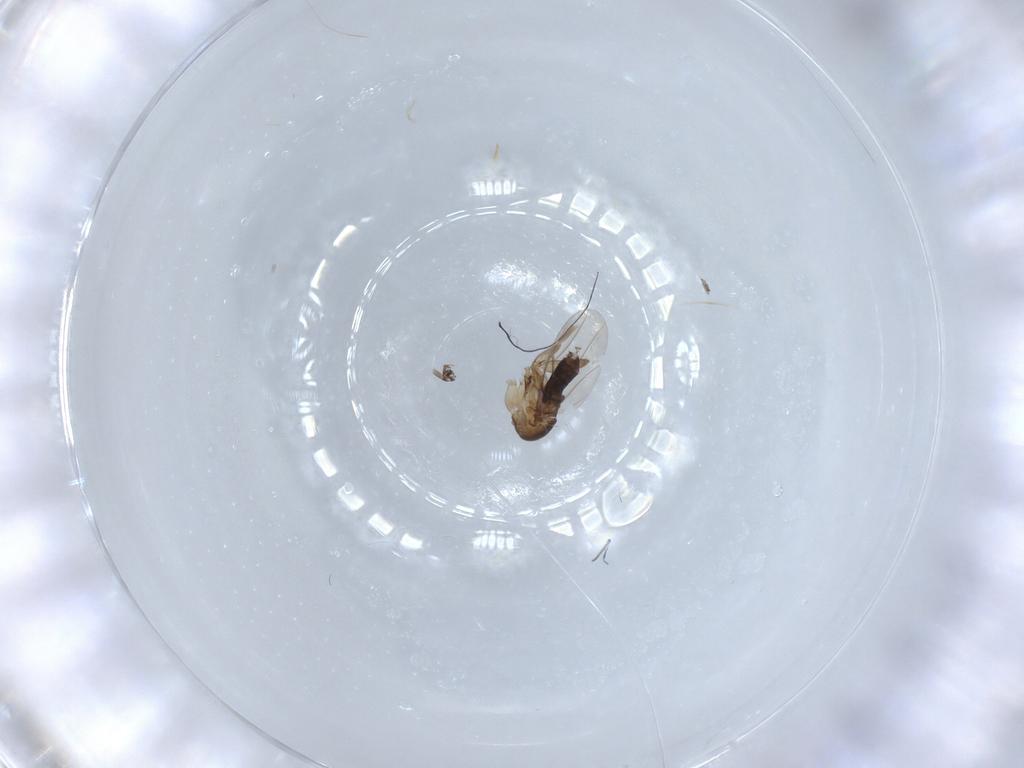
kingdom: Animalia
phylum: Arthropoda
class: Insecta
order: Diptera
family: Phoridae
